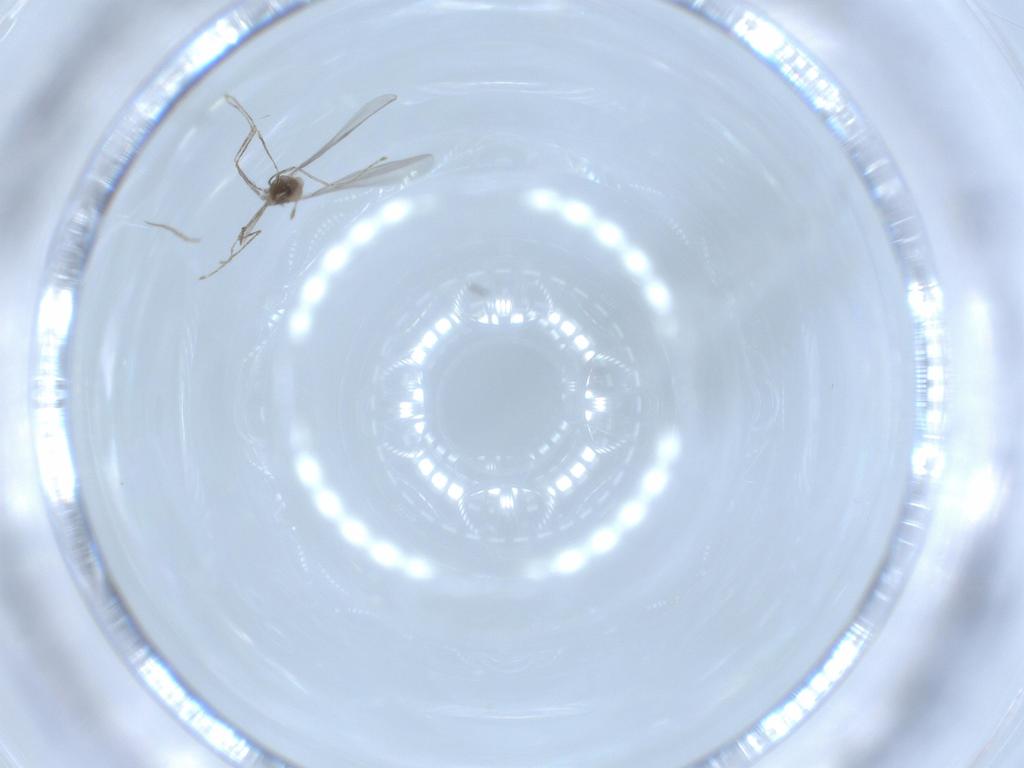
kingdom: Animalia
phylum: Arthropoda
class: Insecta
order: Diptera
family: Cecidomyiidae
